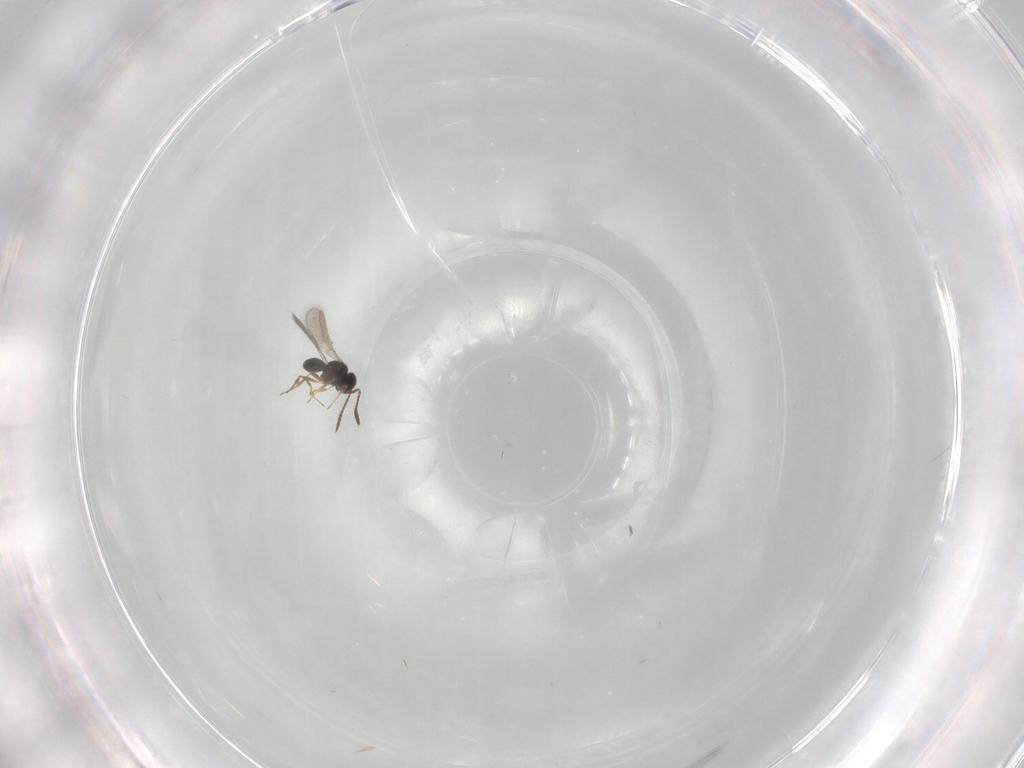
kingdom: Animalia
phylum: Arthropoda
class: Insecta
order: Hymenoptera
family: Scelionidae
